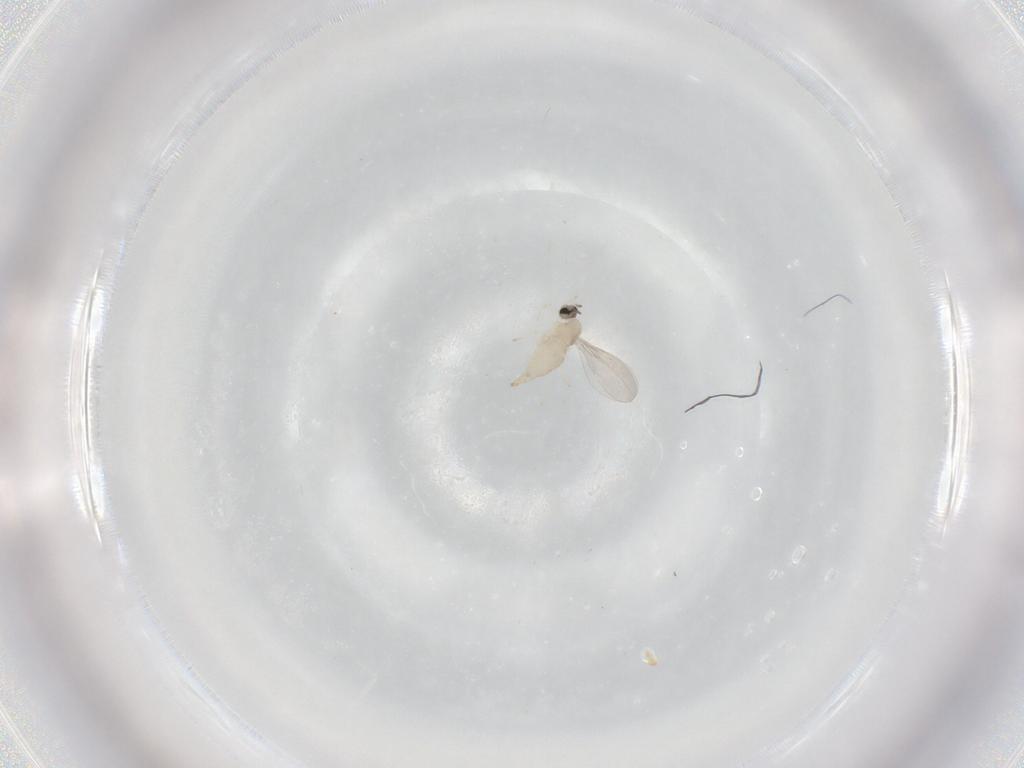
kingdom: Animalia
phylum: Arthropoda
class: Insecta
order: Diptera
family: Cecidomyiidae
